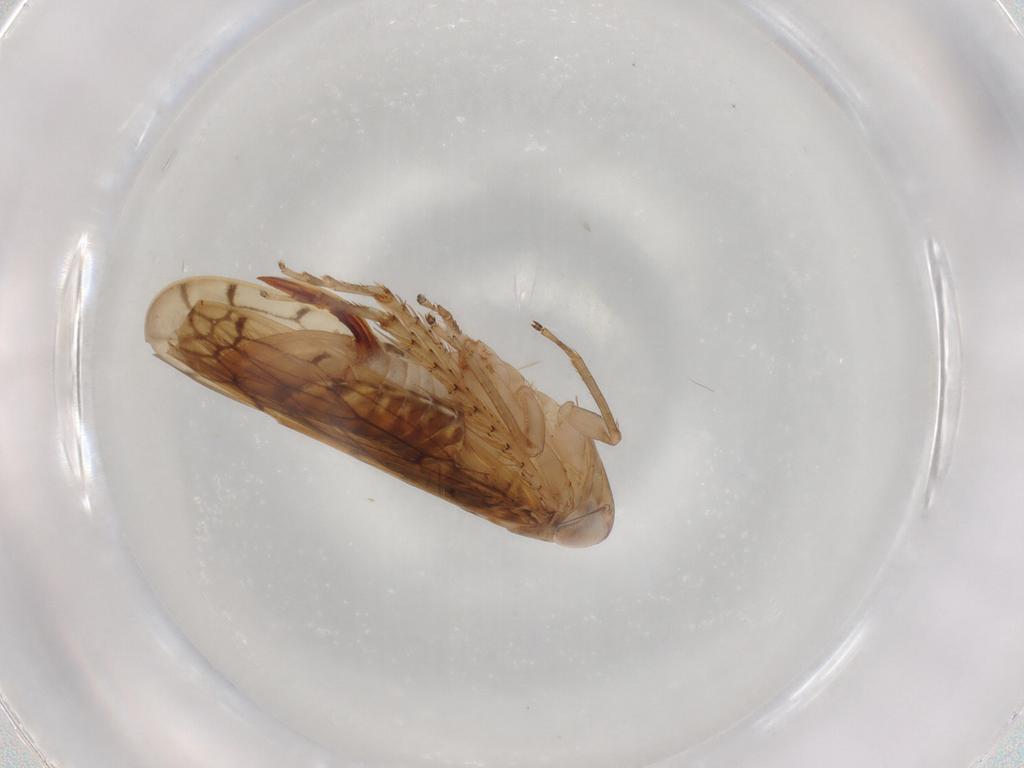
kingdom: Animalia
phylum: Arthropoda
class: Insecta
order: Hemiptera
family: Cicadellidae
